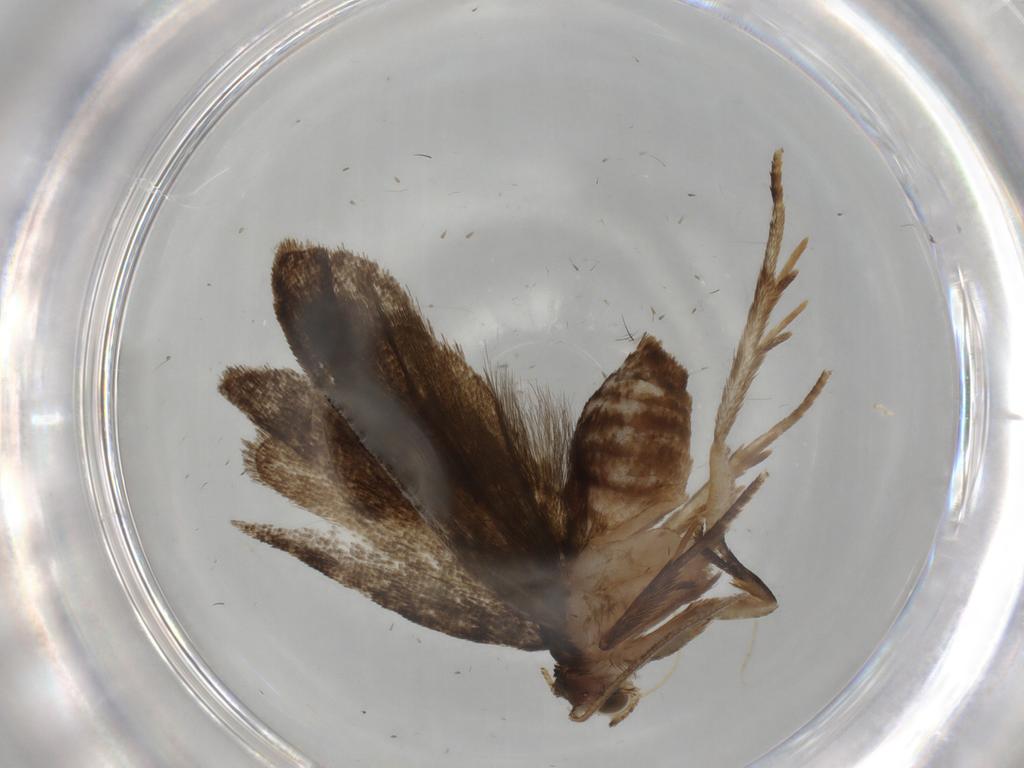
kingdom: Animalia
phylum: Arthropoda
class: Insecta
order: Lepidoptera
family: Tortricidae
